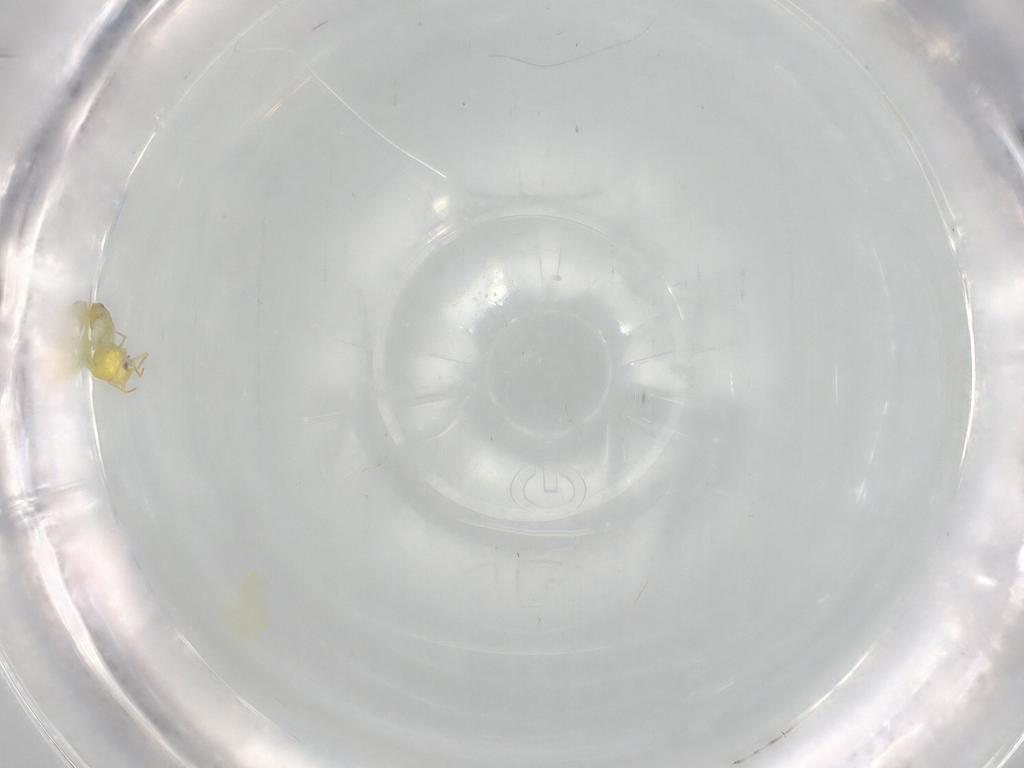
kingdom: Animalia
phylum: Arthropoda
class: Insecta
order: Hemiptera
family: Aleyrodidae
